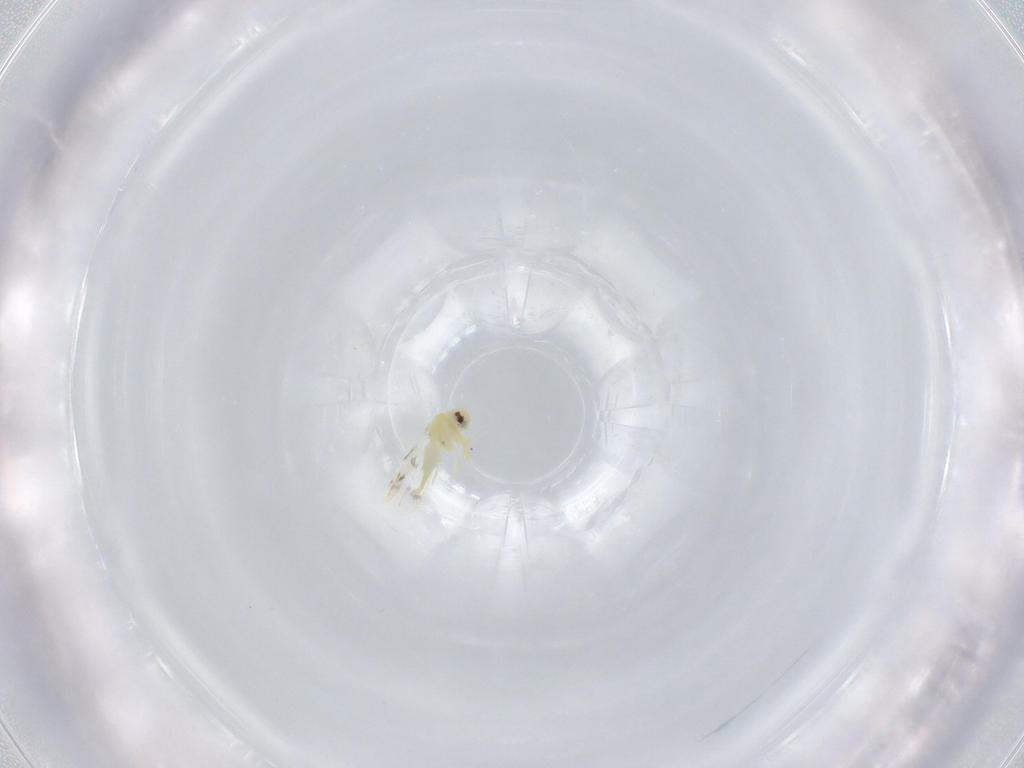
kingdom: Animalia
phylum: Arthropoda
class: Insecta
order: Hemiptera
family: Aleyrodidae
